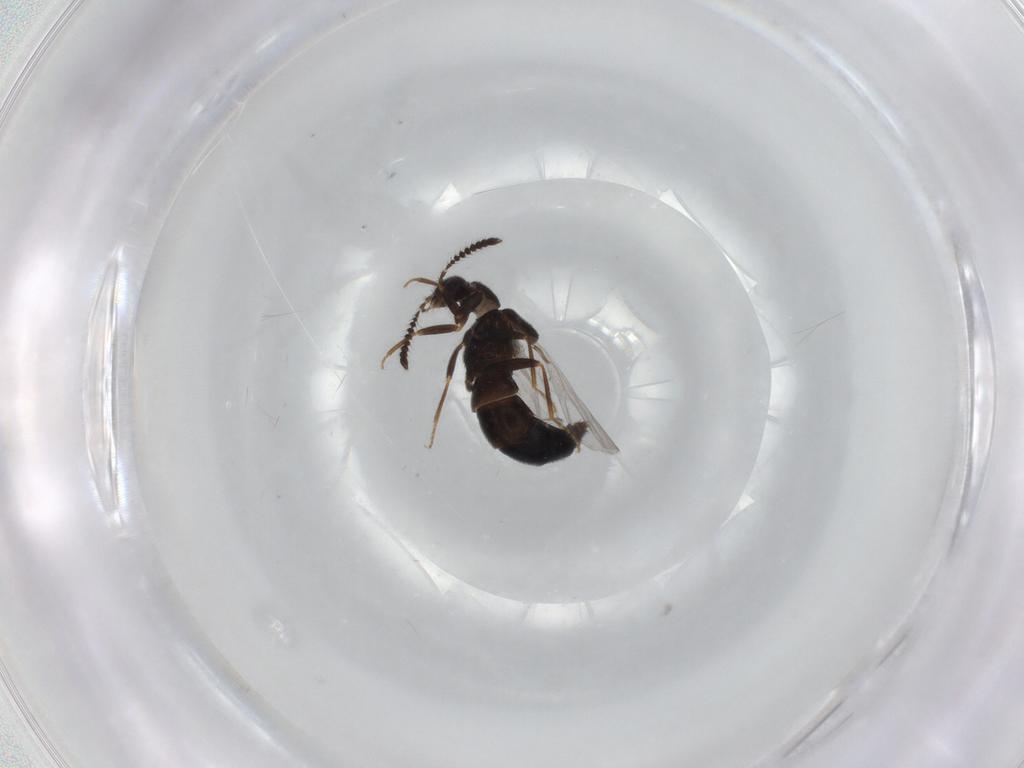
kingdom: Animalia
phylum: Arthropoda
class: Insecta
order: Coleoptera
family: Staphylinidae
